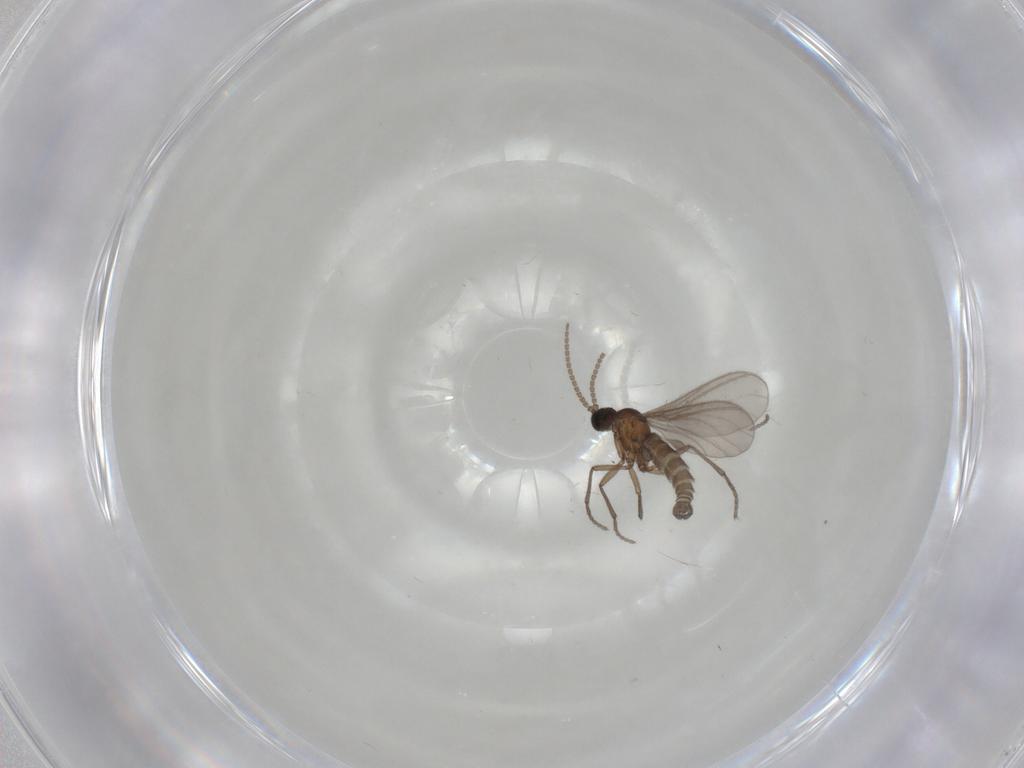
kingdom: Animalia
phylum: Arthropoda
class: Insecta
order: Diptera
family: Sciaridae
